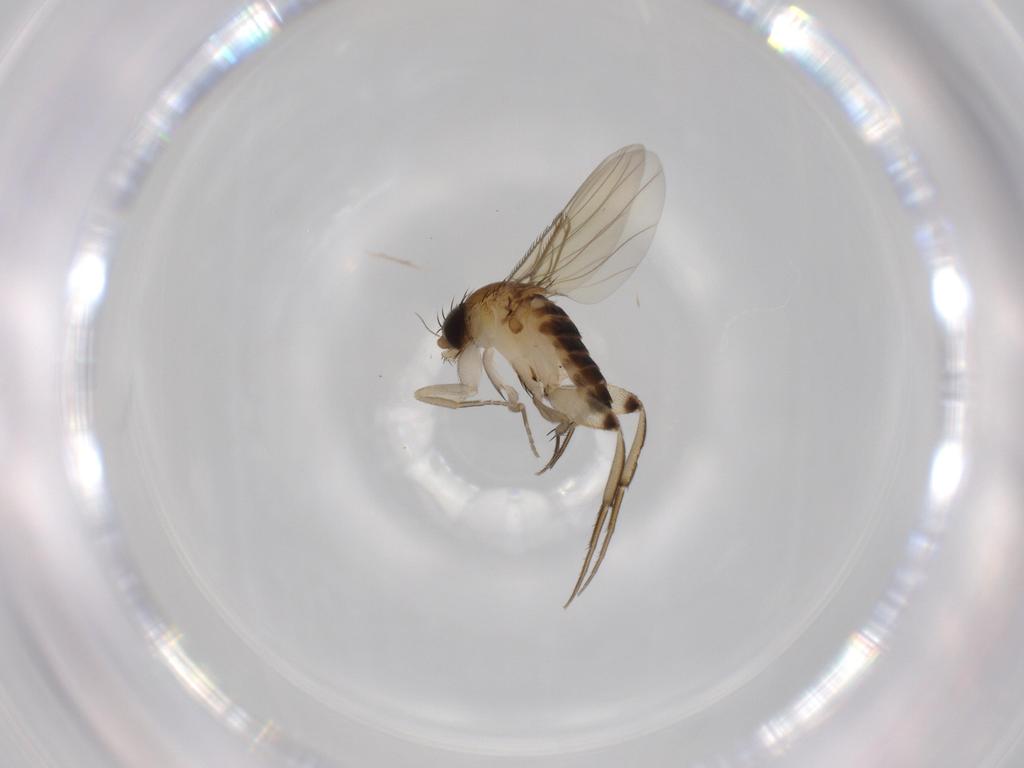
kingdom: Animalia
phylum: Arthropoda
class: Insecta
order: Diptera
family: Phoridae
